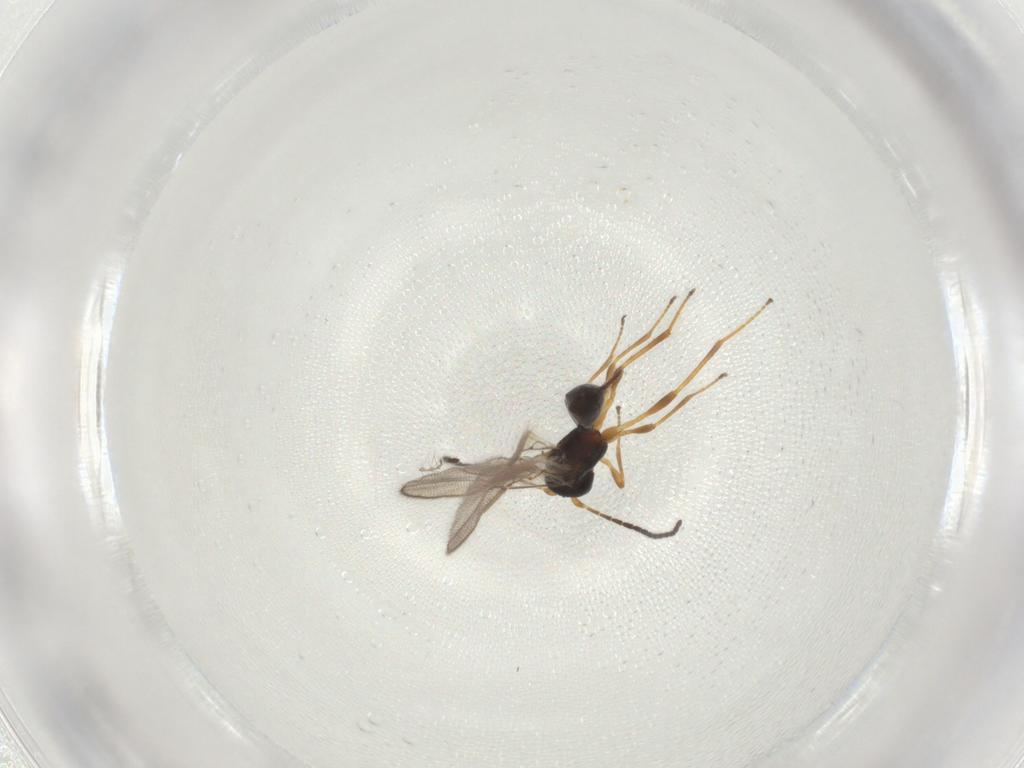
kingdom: Animalia
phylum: Arthropoda
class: Insecta
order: Hymenoptera
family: Braconidae
